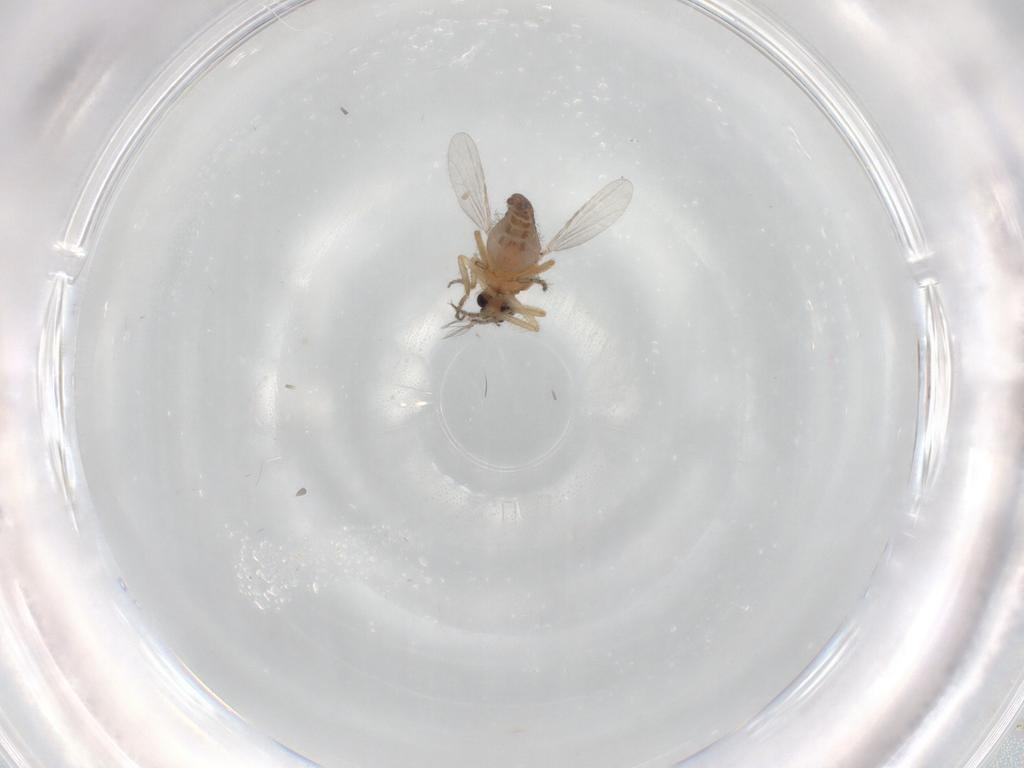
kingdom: Animalia
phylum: Arthropoda
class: Insecta
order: Diptera
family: Ceratopogonidae
